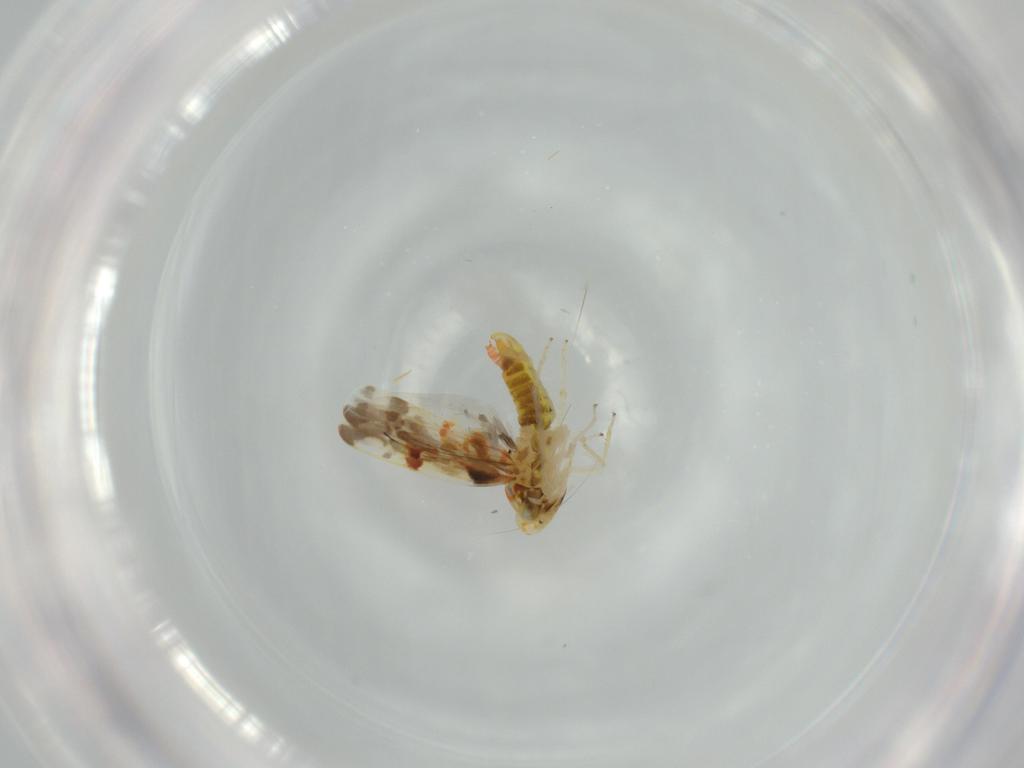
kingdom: Animalia
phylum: Arthropoda
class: Insecta
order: Hemiptera
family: Cicadellidae
